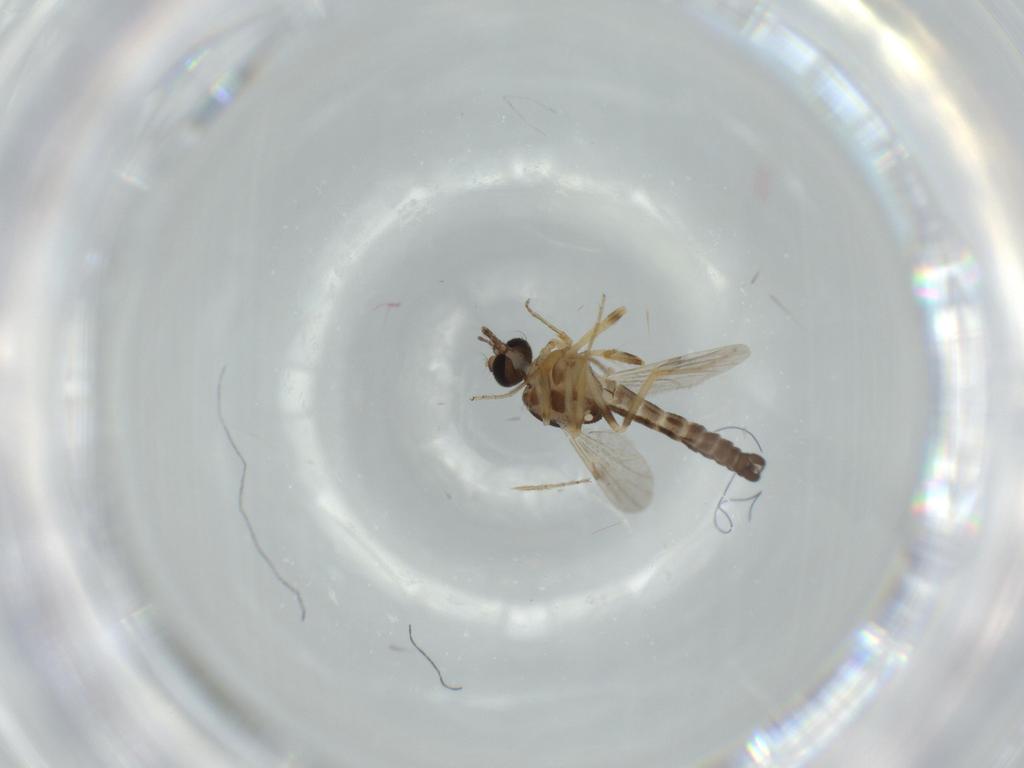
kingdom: Animalia
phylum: Arthropoda
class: Insecta
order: Diptera
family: Ceratopogonidae
